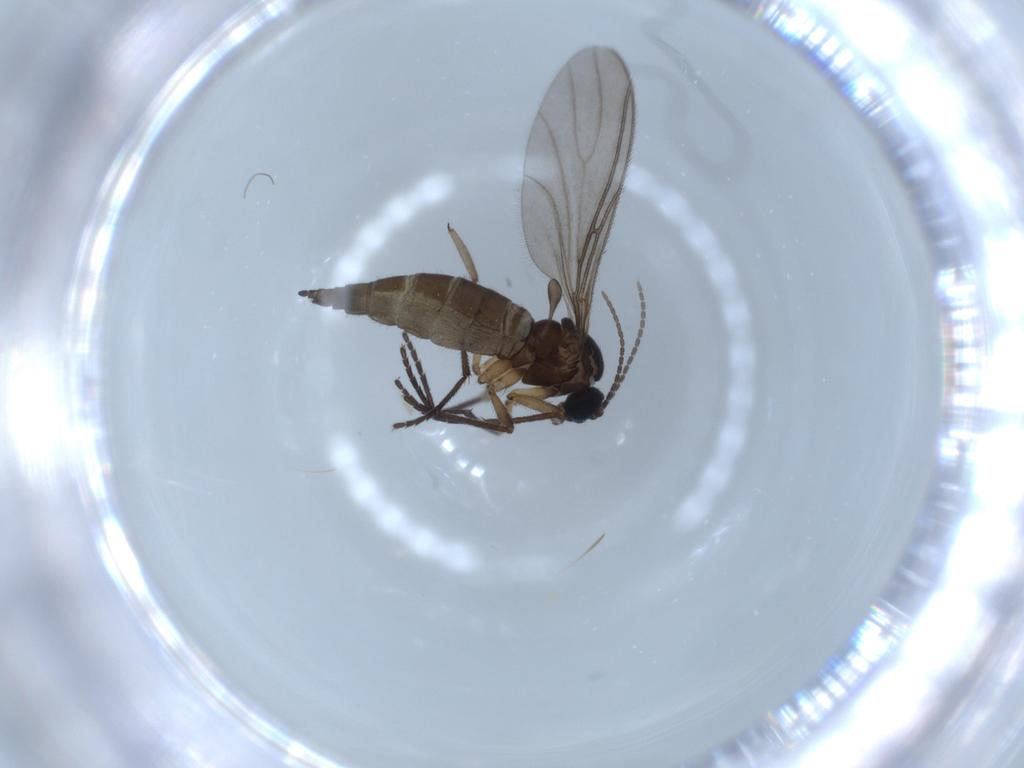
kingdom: Animalia
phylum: Arthropoda
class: Insecta
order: Diptera
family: Sciaridae
